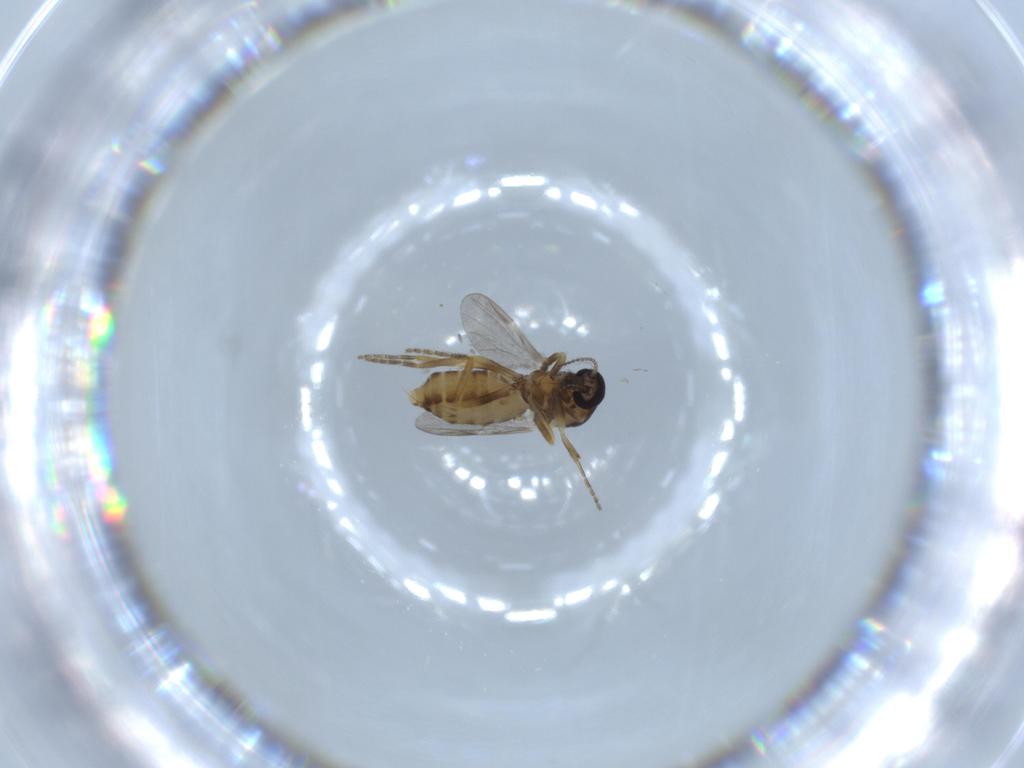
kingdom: Animalia
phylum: Arthropoda
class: Insecta
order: Diptera
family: Ceratopogonidae
